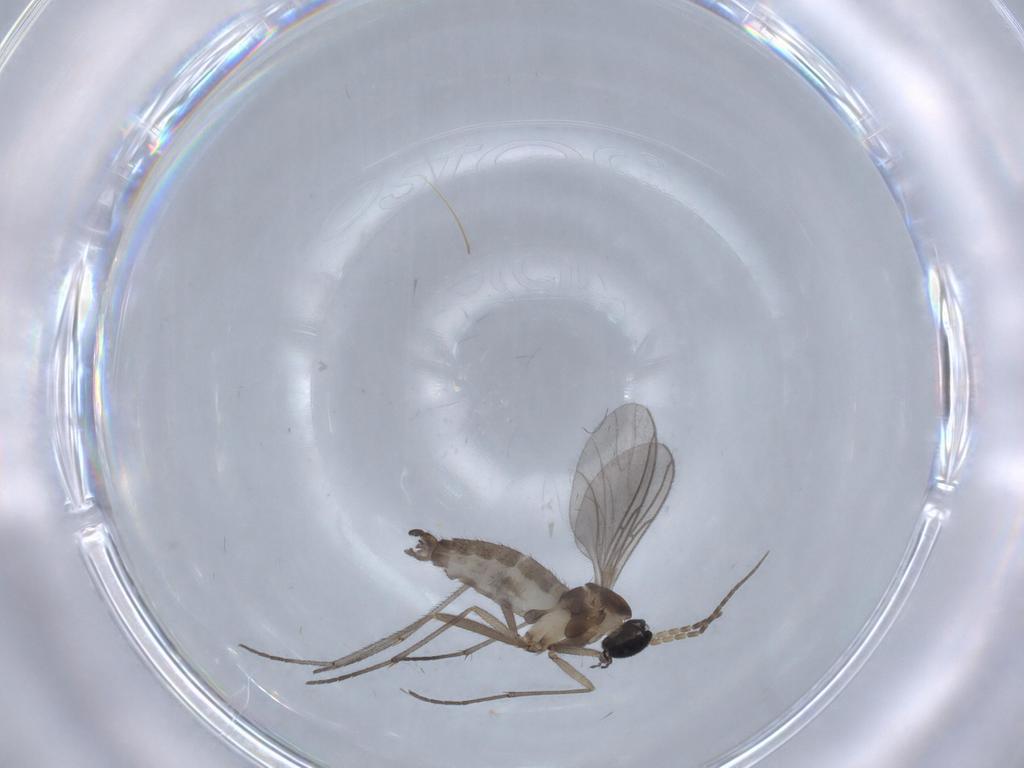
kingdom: Animalia
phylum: Arthropoda
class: Insecta
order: Diptera
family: Sciaridae
